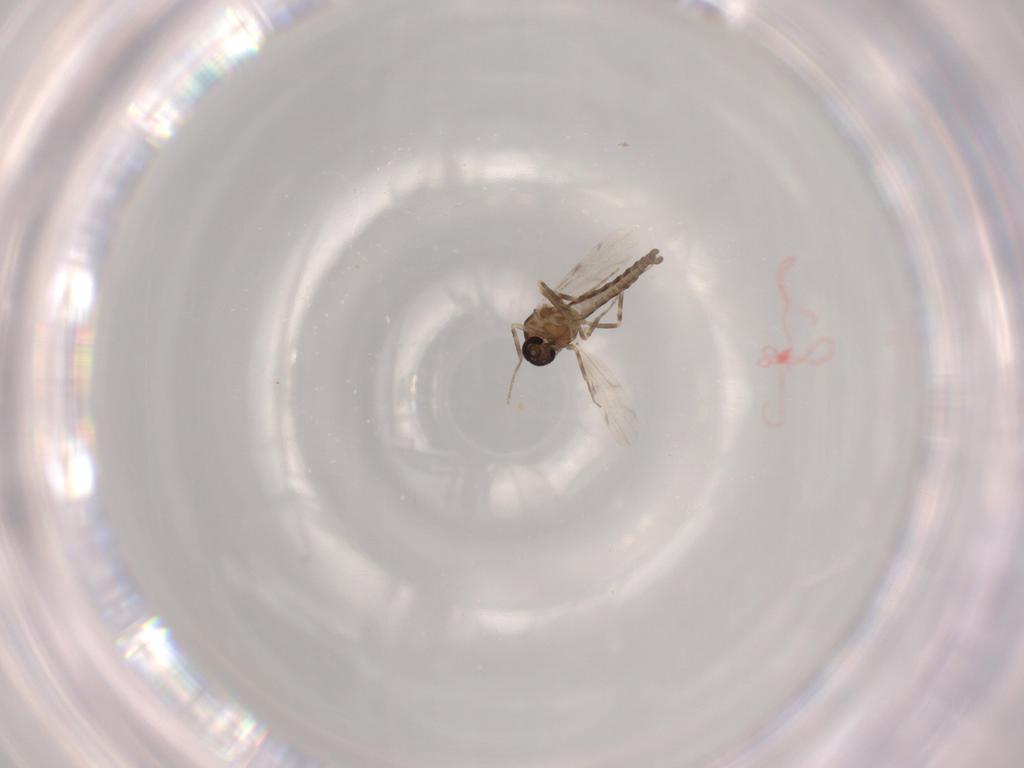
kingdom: Animalia
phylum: Arthropoda
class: Insecta
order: Diptera
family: Ceratopogonidae
